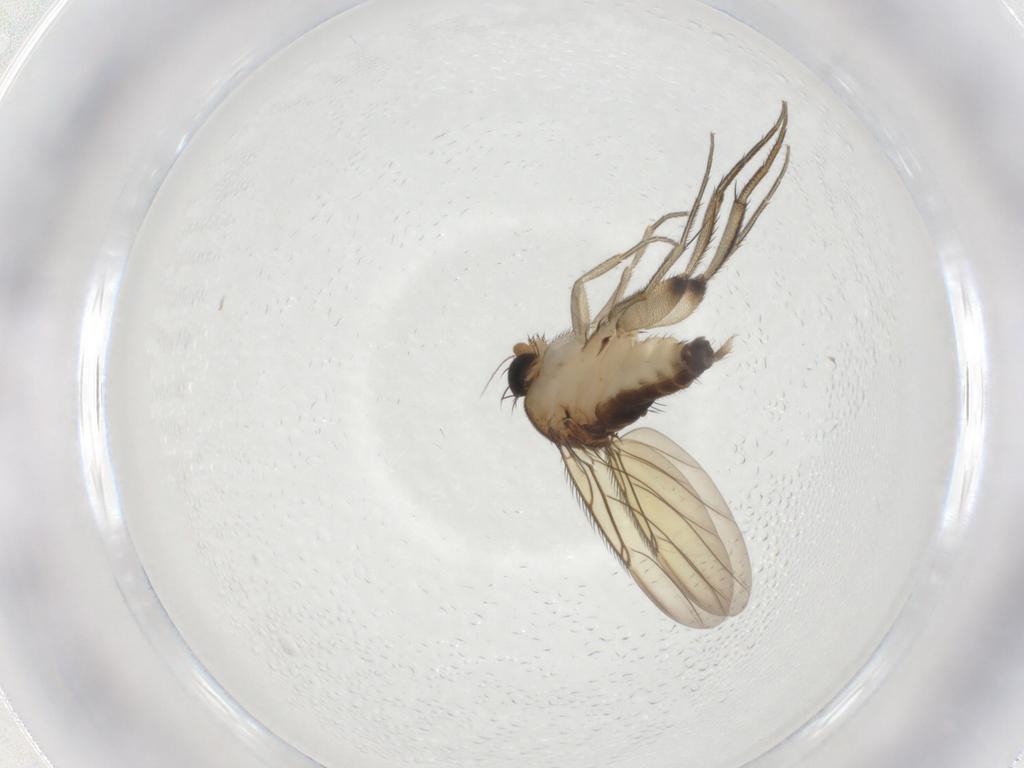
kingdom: Animalia
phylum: Arthropoda
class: Insecta
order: Diptera
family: Phoridae
